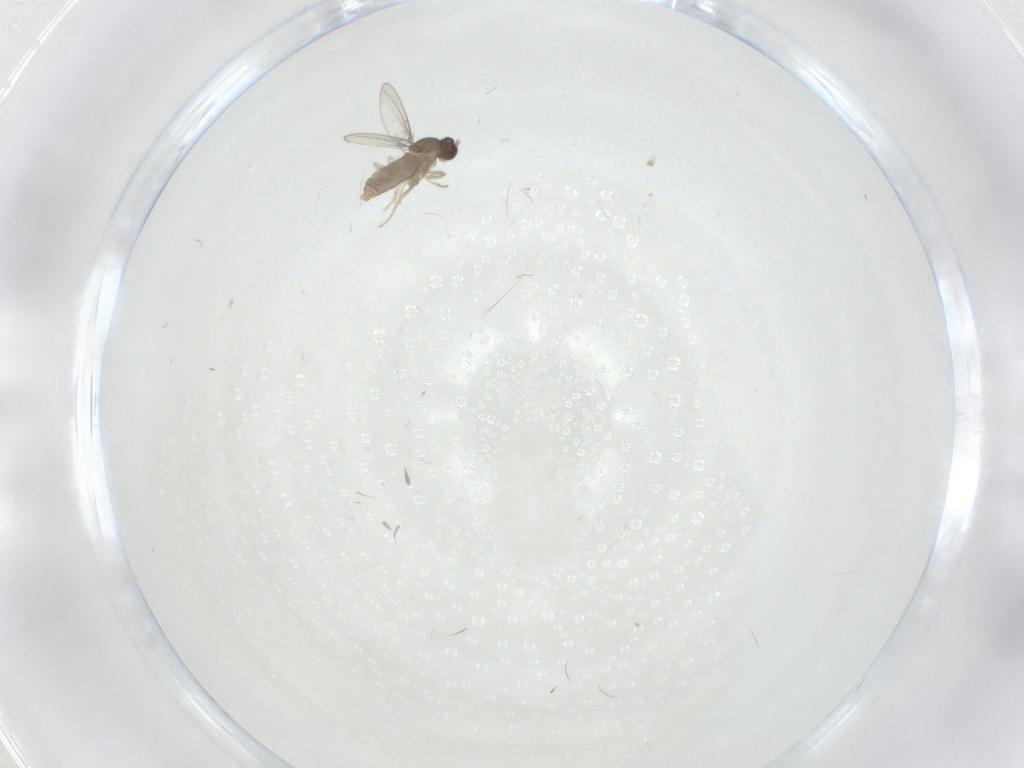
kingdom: Animalia
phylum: Arthropoda
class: Insecta
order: Diptera
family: Cecidomyiidae
